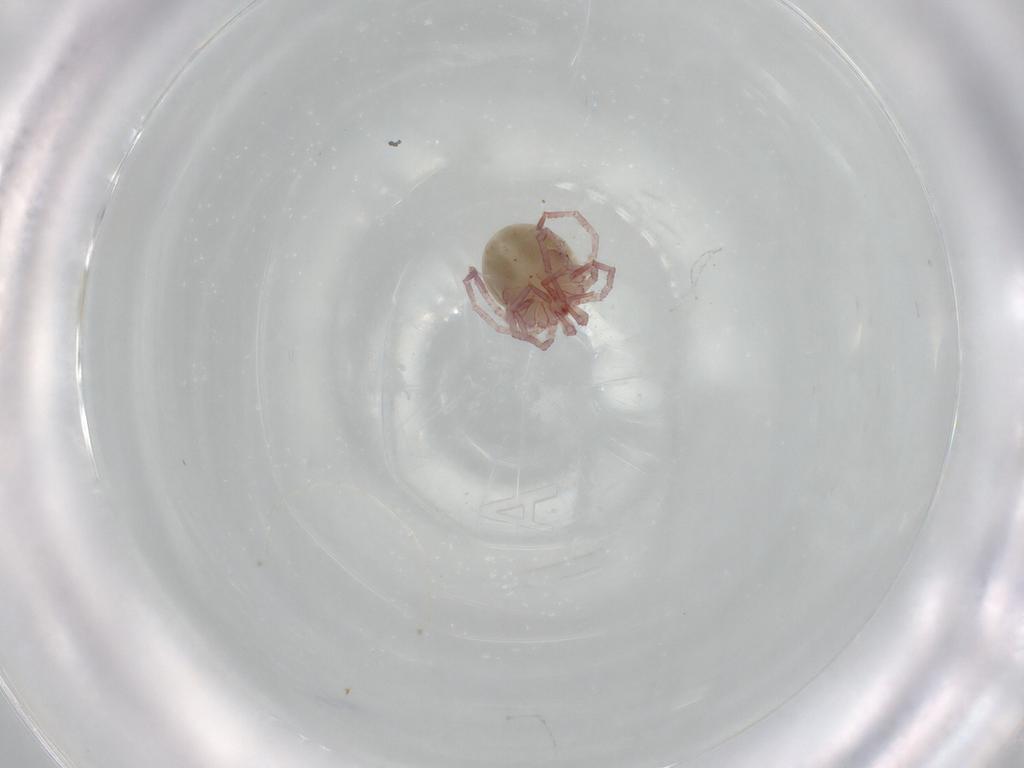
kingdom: Animalia
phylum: Arthropoda
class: Arachnida
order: Trombidiformes
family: Pionidae
